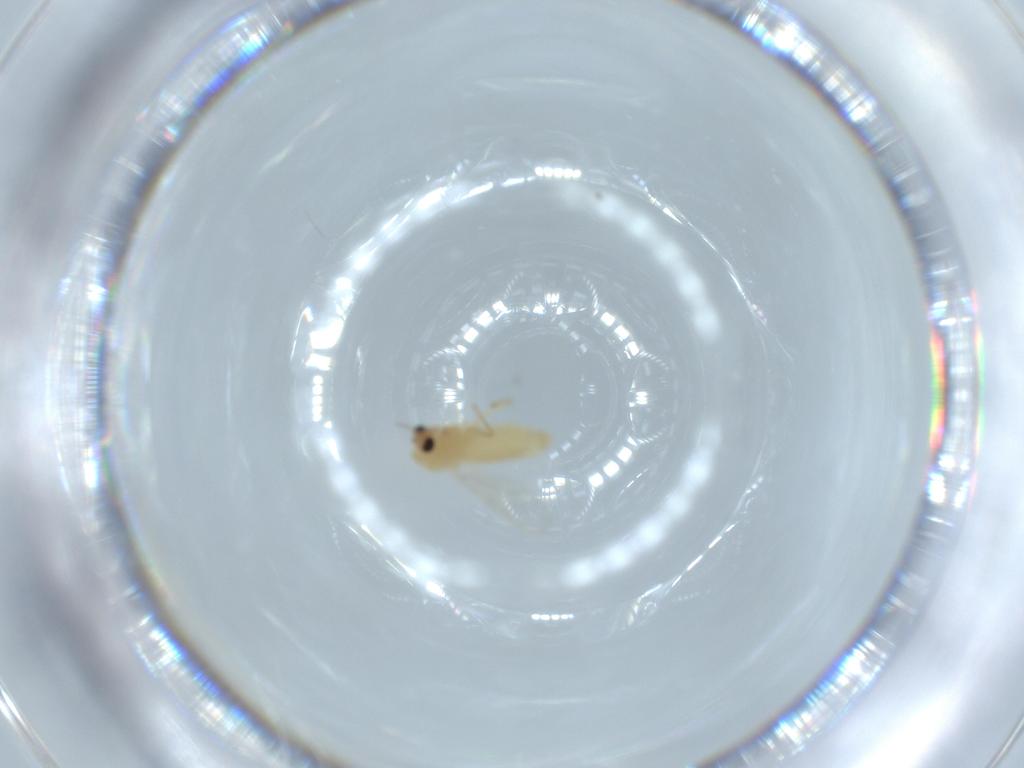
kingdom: Animalia
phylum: Arthropoda
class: Insecta
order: Diptera
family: Chironomidae
